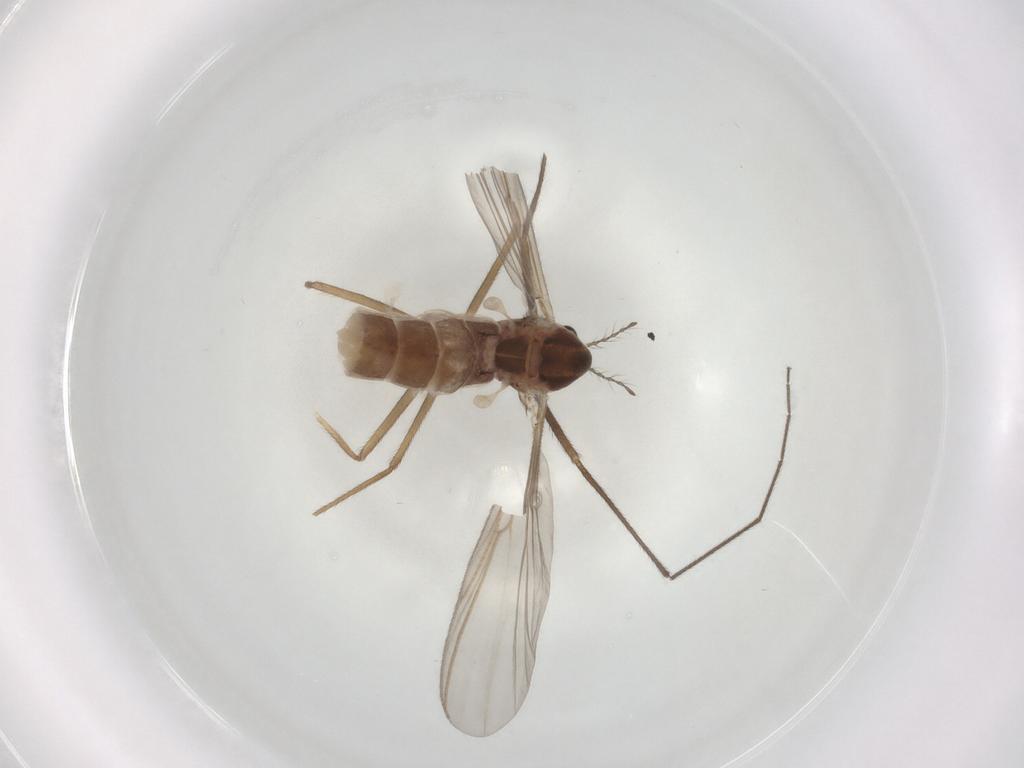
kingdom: Animalia
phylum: Arthropoda
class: Insecta
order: Diptera
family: Chironomidae
